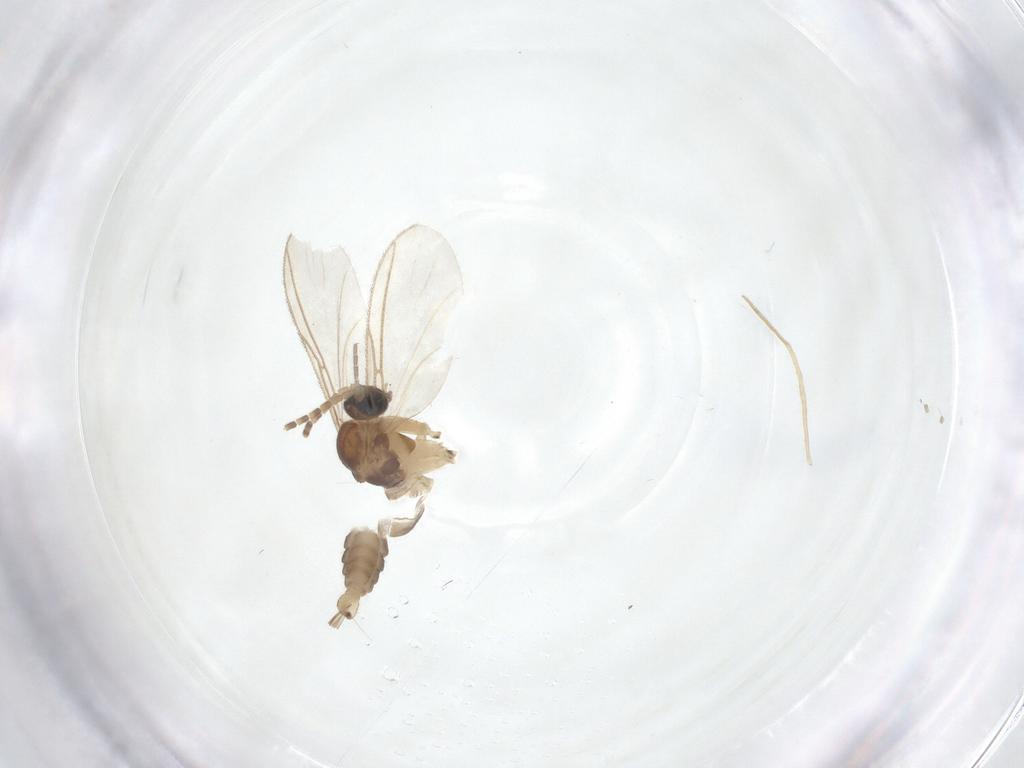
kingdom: Animalia
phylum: Arthropoda
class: Insecta
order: Diptera
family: Sciaridae
